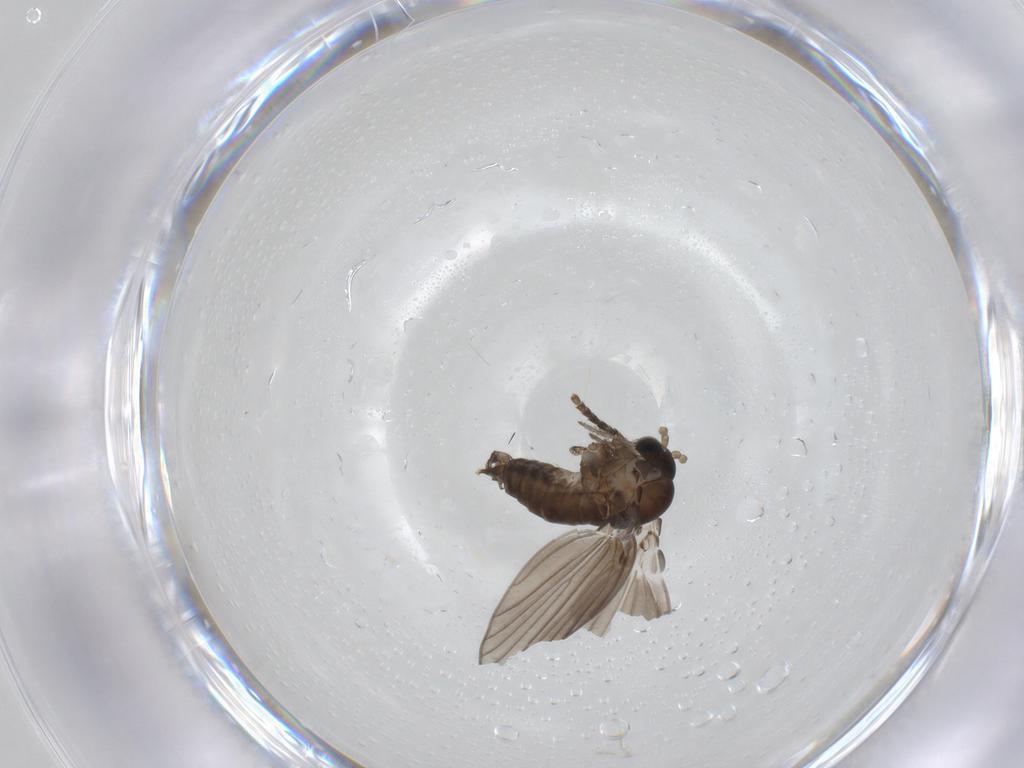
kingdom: Animalia
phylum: Arthropoda
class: Insecta
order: Diptera
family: Psychodidae
